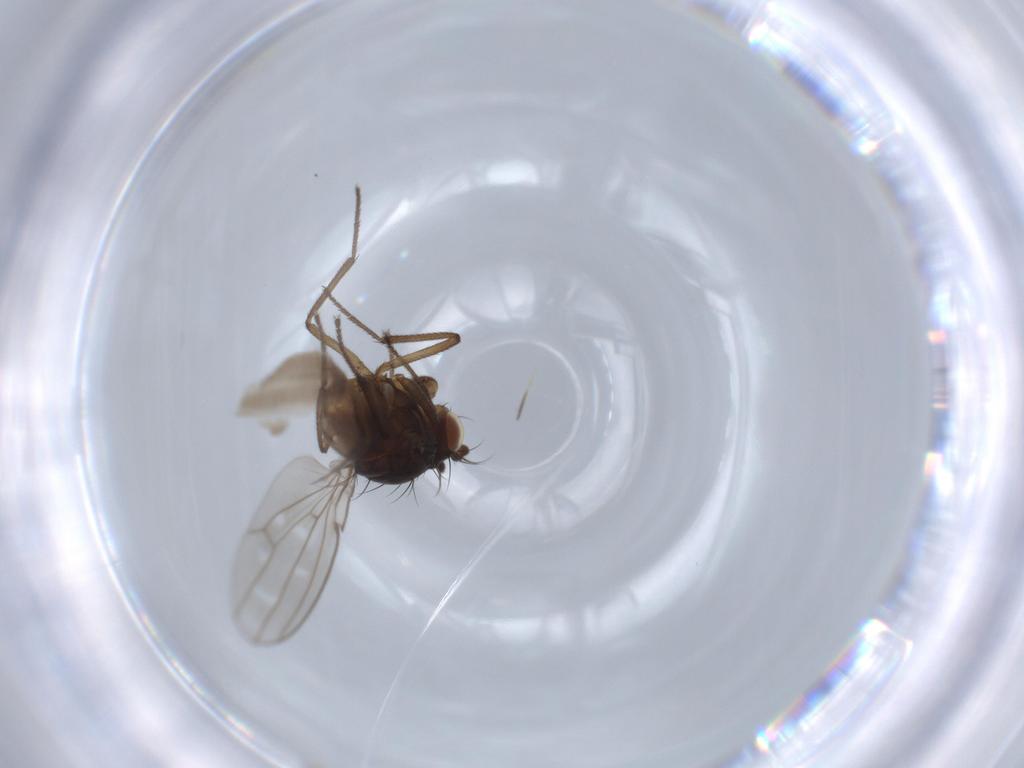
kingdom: Animalia
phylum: Arthropoda
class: Insecta
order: Diptera
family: Ephydridae
